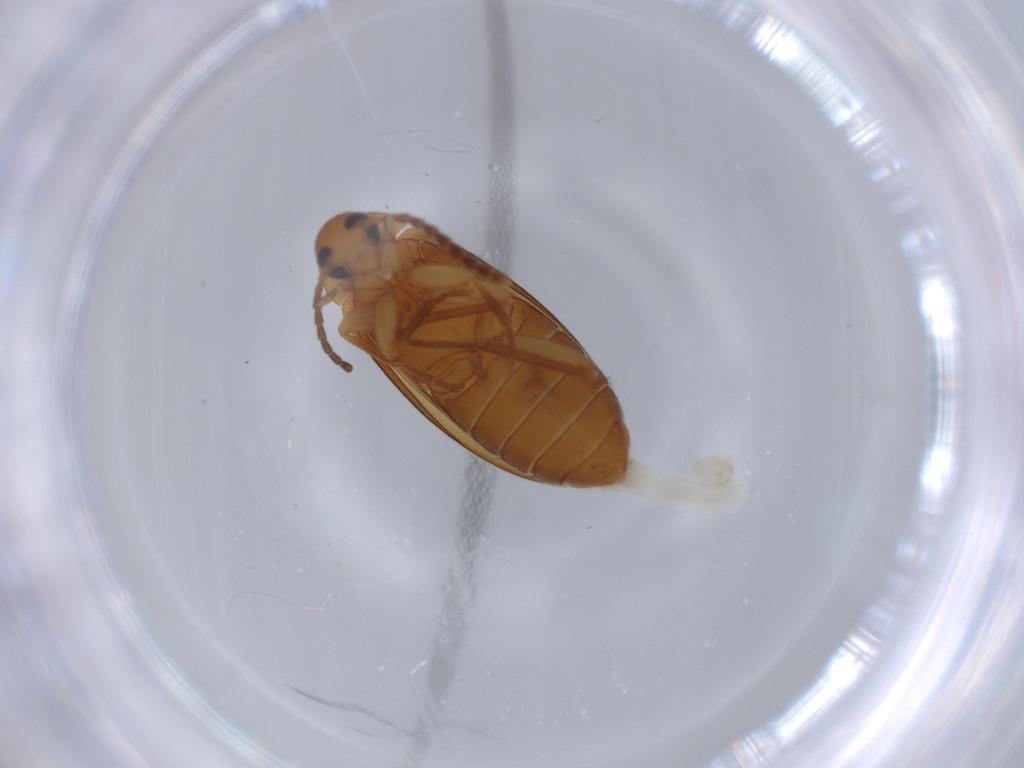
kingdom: Animalia
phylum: Arthropoda
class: Insecta
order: Coleoptera
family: Scraptiidae
